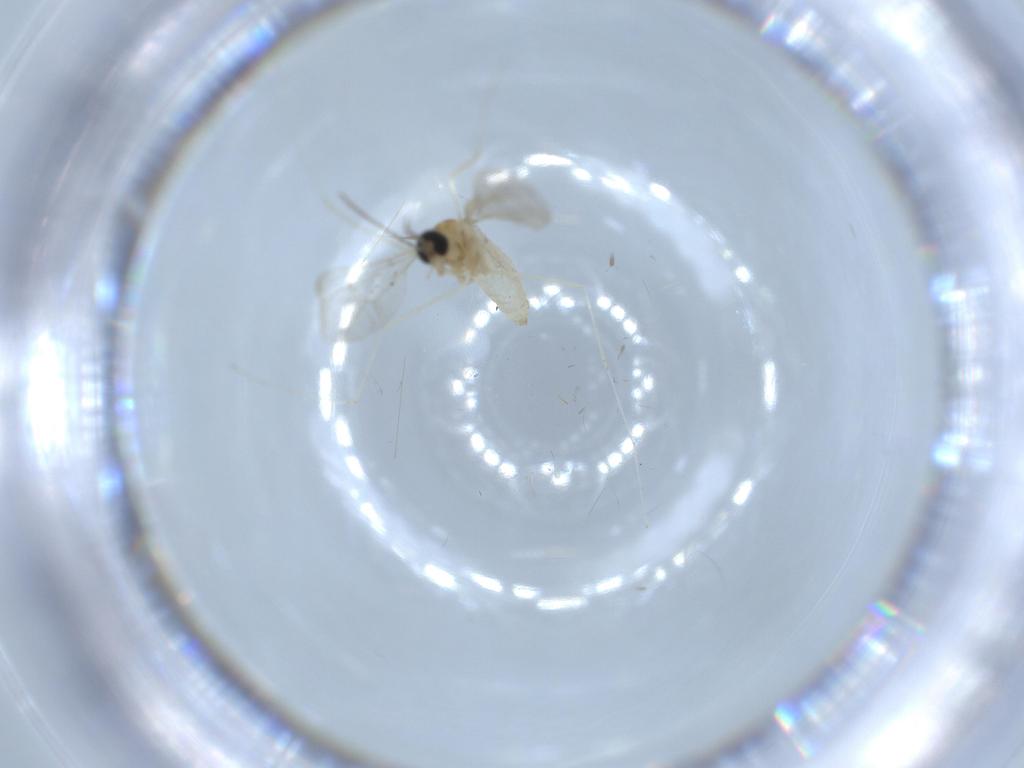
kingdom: Animalia
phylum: Arthropoda
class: Insecta
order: Diptera
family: Cecidomyiidae
